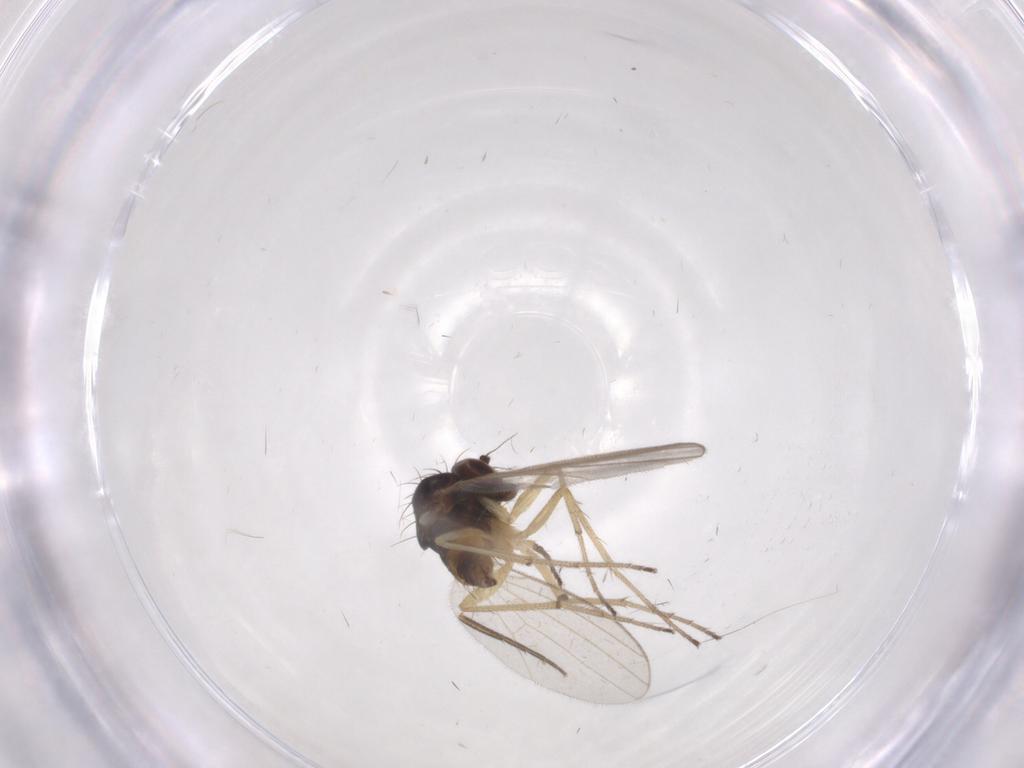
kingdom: Animalia
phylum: Arthropoda
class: Insecta
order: Diptera
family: Dolichopodidae
